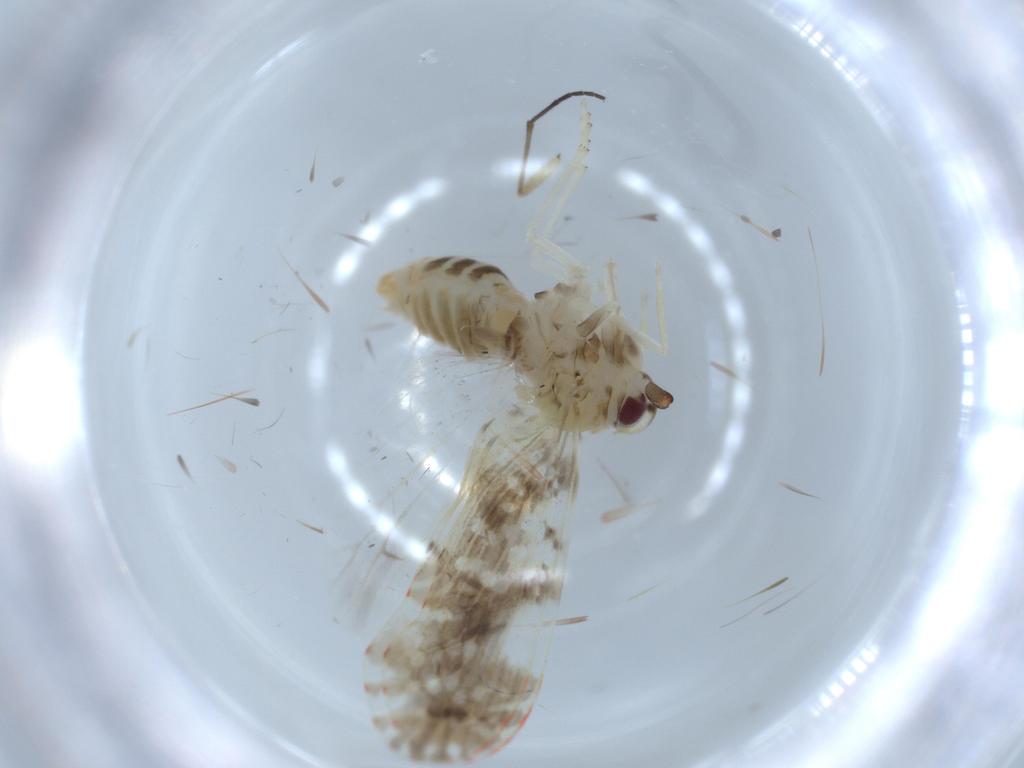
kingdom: Animalia
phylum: Arthropoda
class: Insecta
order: Hemiptera
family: Derbidae
